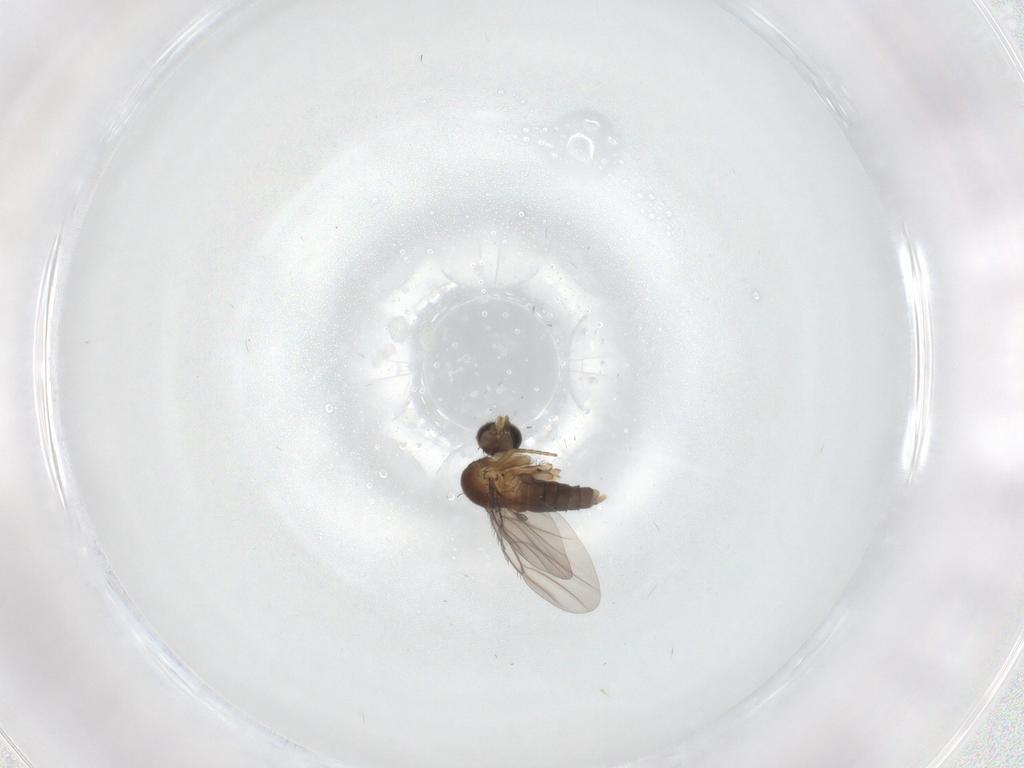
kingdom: Animalia
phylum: Arthropoda
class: Insecta
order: Diptera
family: Phoridae
